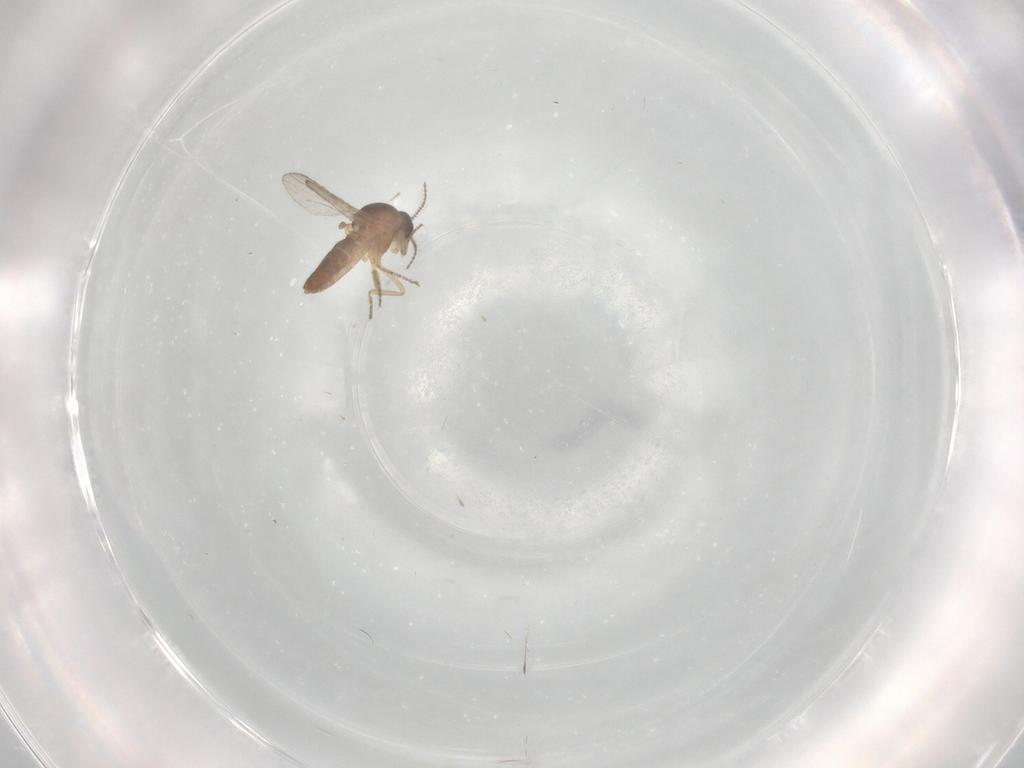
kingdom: Animalia
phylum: Arthropoda
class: Insecta
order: Diptera
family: Ceratopogonidae
